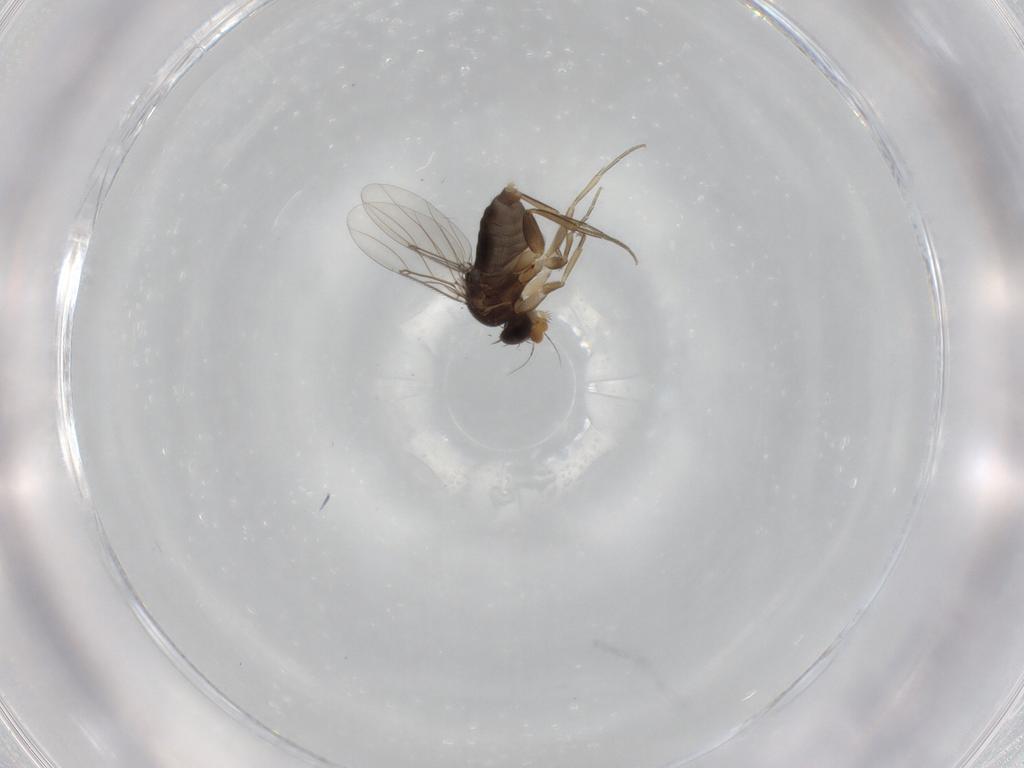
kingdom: Animalia
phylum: Arthropoda
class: Insecta
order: Diptera
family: Phoridae
